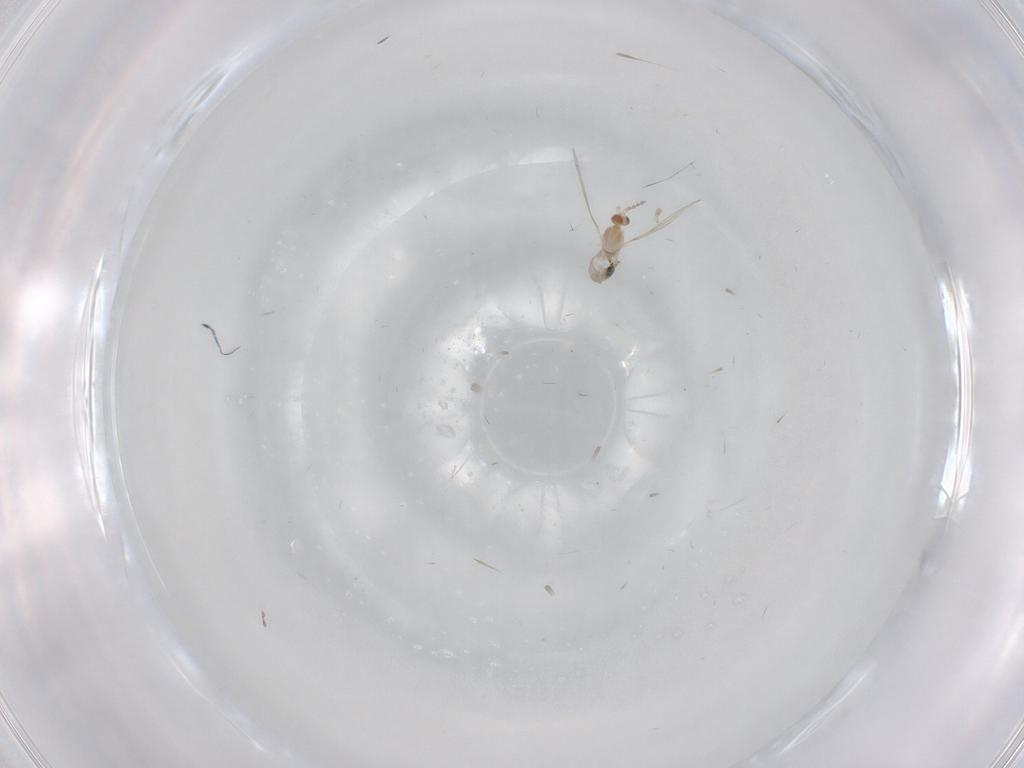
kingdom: Animalia
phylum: Arthropoda
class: Insecta
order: Diptera
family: Cecidomyiidae
